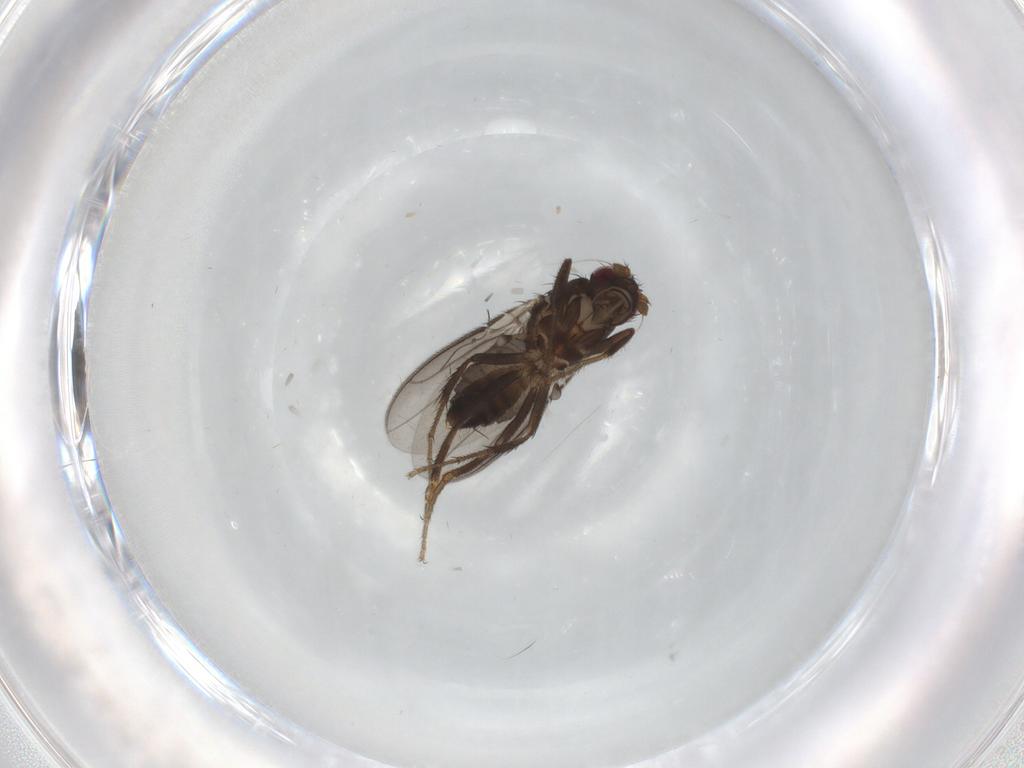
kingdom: Animalia
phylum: Arthropoda
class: Insecta
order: Diptera
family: Sphaeroceridae
